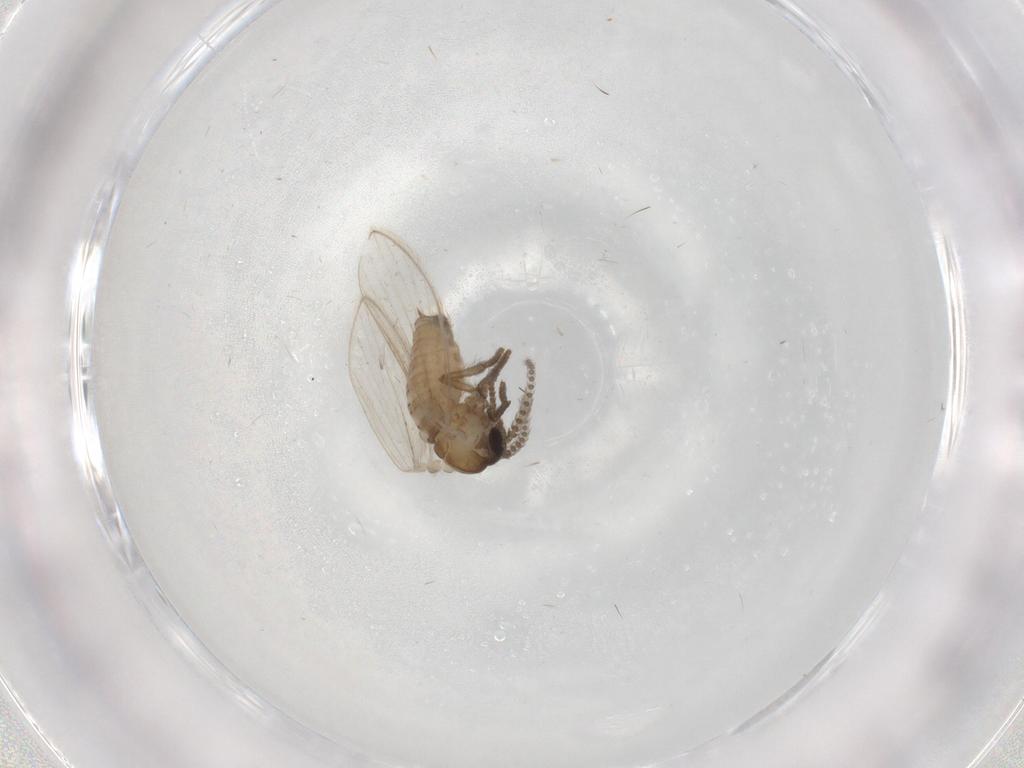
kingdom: Animalia
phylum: Arthropoda
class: Insecta
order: Diptera
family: Psychodidae
